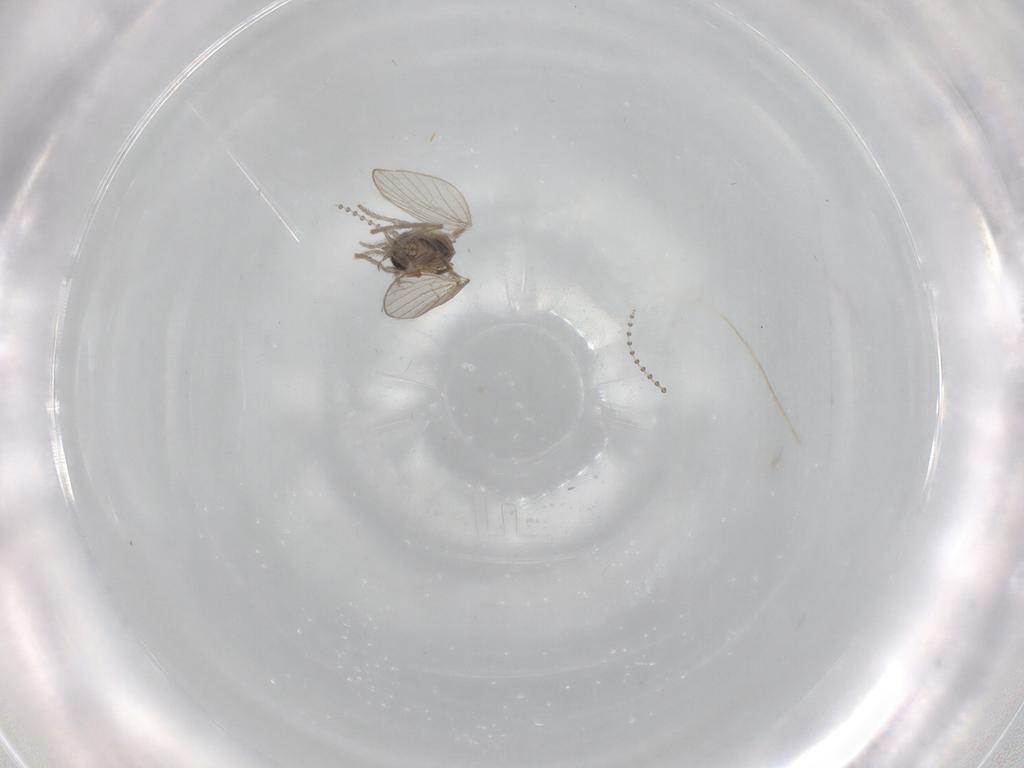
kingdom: Animalia
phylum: Arthropoda
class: Insecta
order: Diptera
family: Psychodidae
